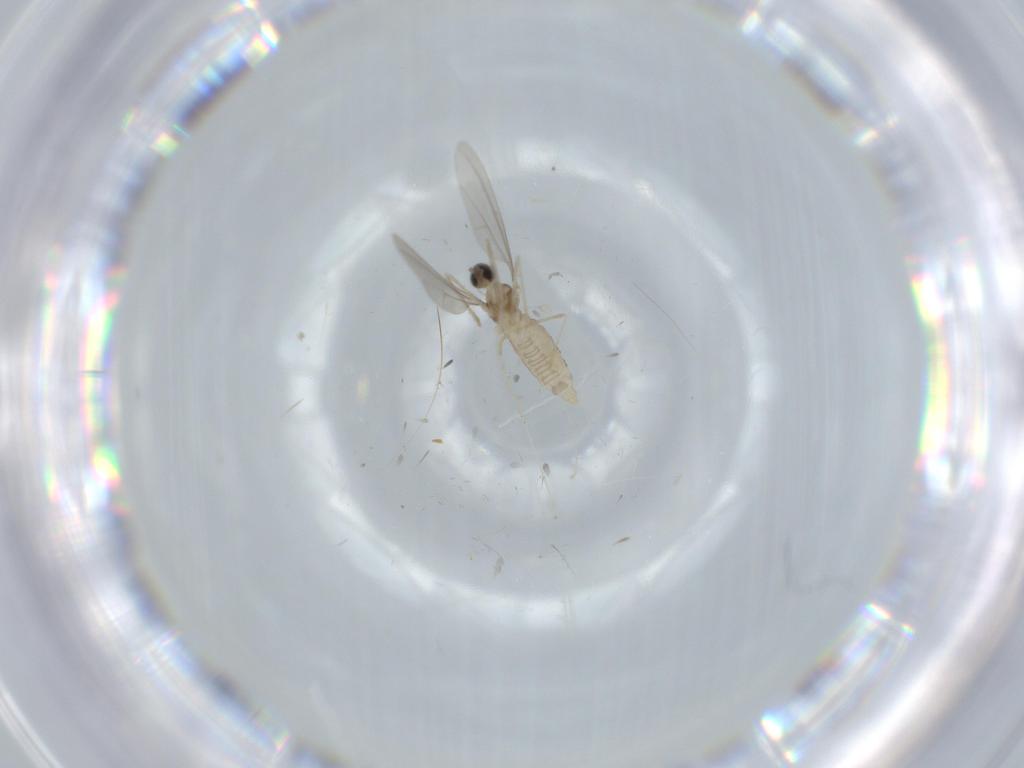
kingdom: Animalia
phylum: Arthropoda
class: Insecta
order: Diptera
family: Cecidomyiidae
